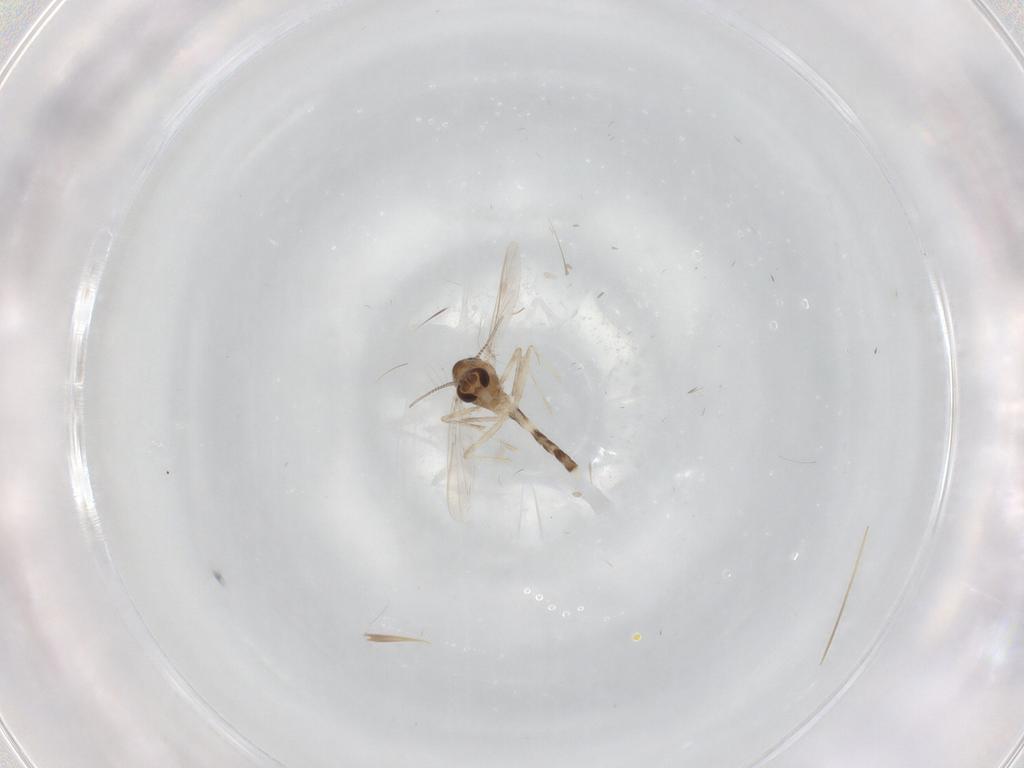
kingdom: Animalia
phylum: Arthropoda
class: Insecta
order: Diptera
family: Chironomidae
